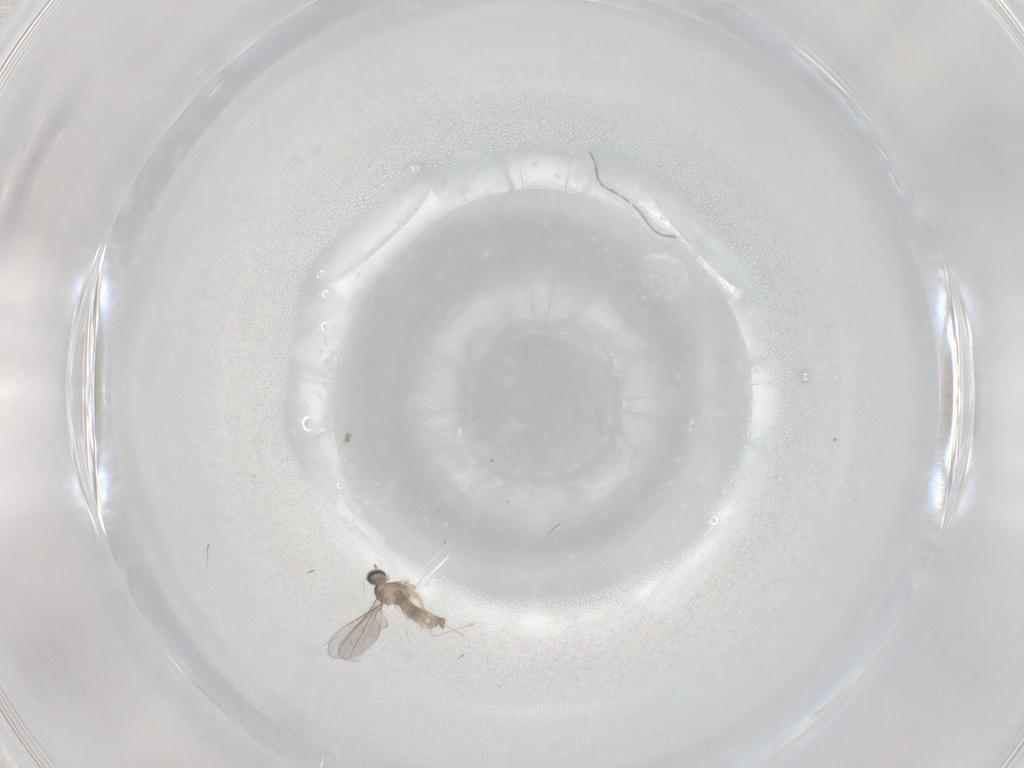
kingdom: Animalia
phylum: Arthropoda
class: Insecta
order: Diptera
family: Cecidomyiidae
